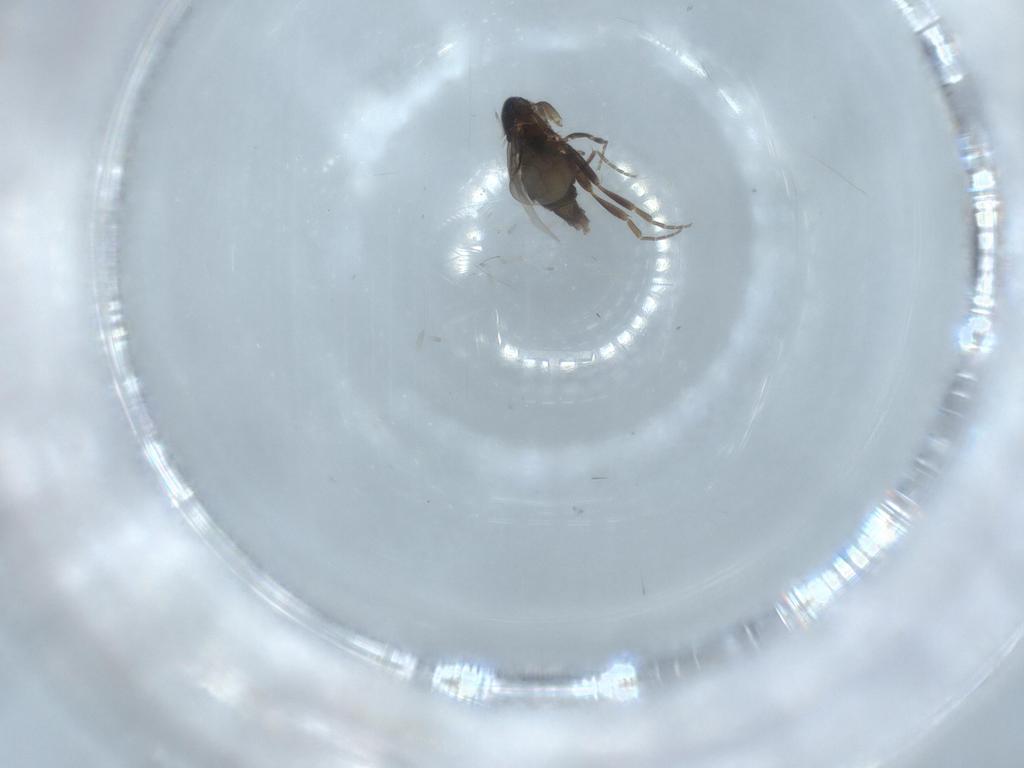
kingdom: Animalia
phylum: Arthropoda
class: Insecta
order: Diptera
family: Phoridae
